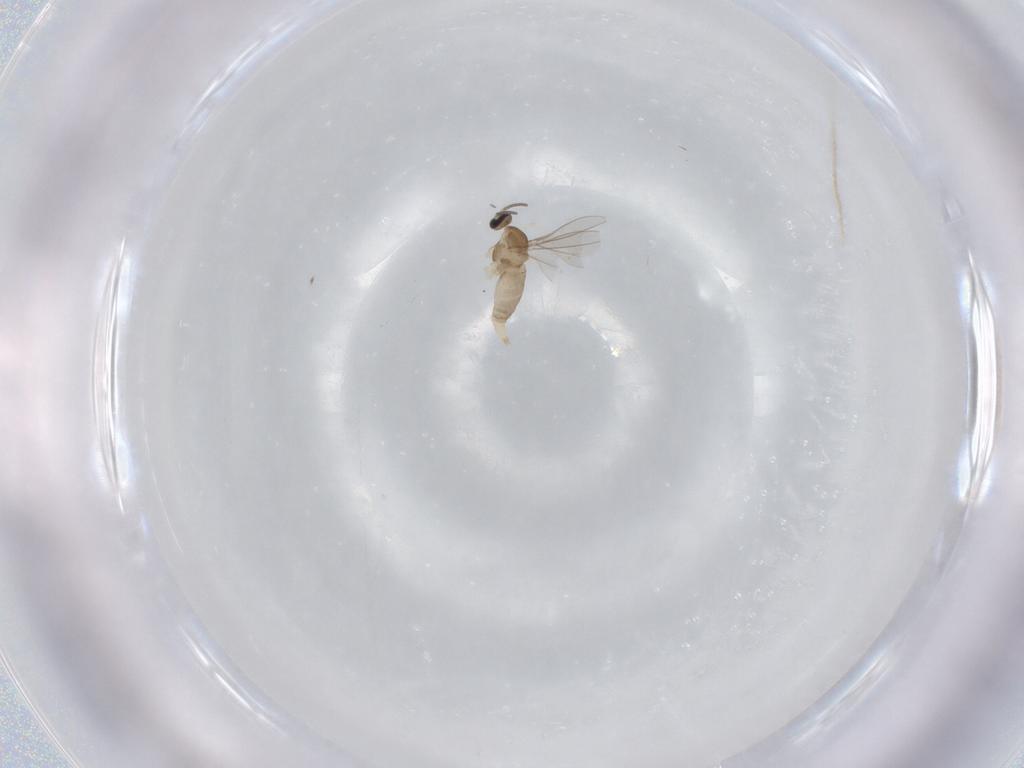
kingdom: Animalia
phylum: Arthropoda
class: Insecta
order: Diptera
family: Cecidomyiidae
